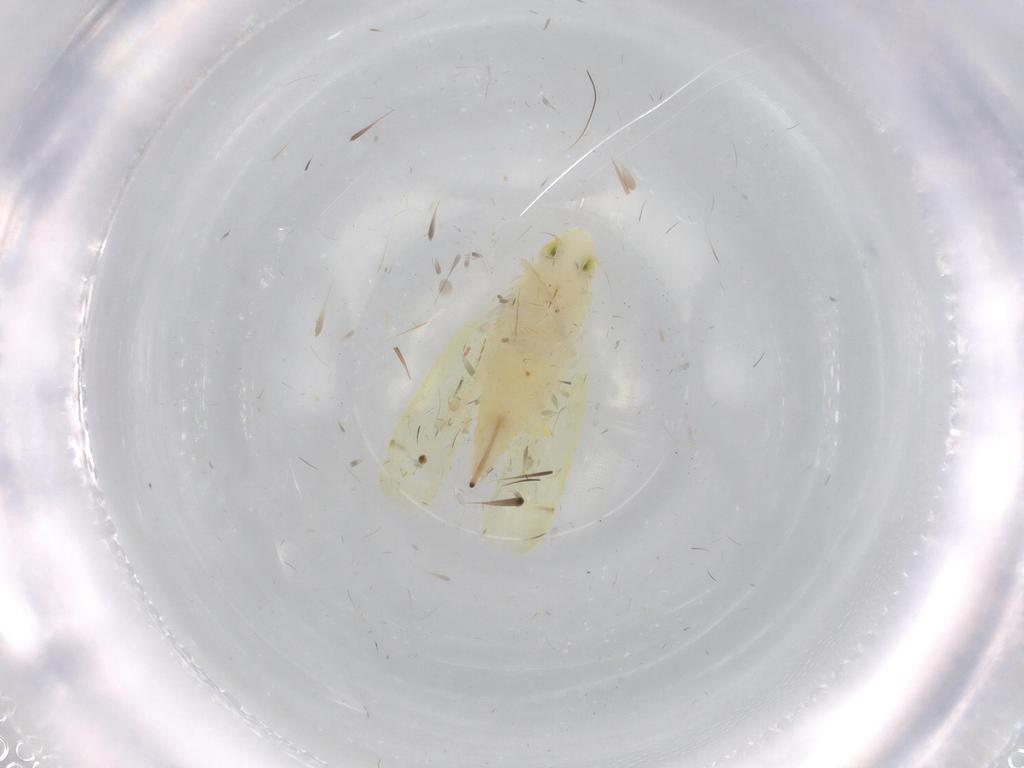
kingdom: Animalia
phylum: Arthropoda
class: Insecta
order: Hemiptera
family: Cicadellidae
